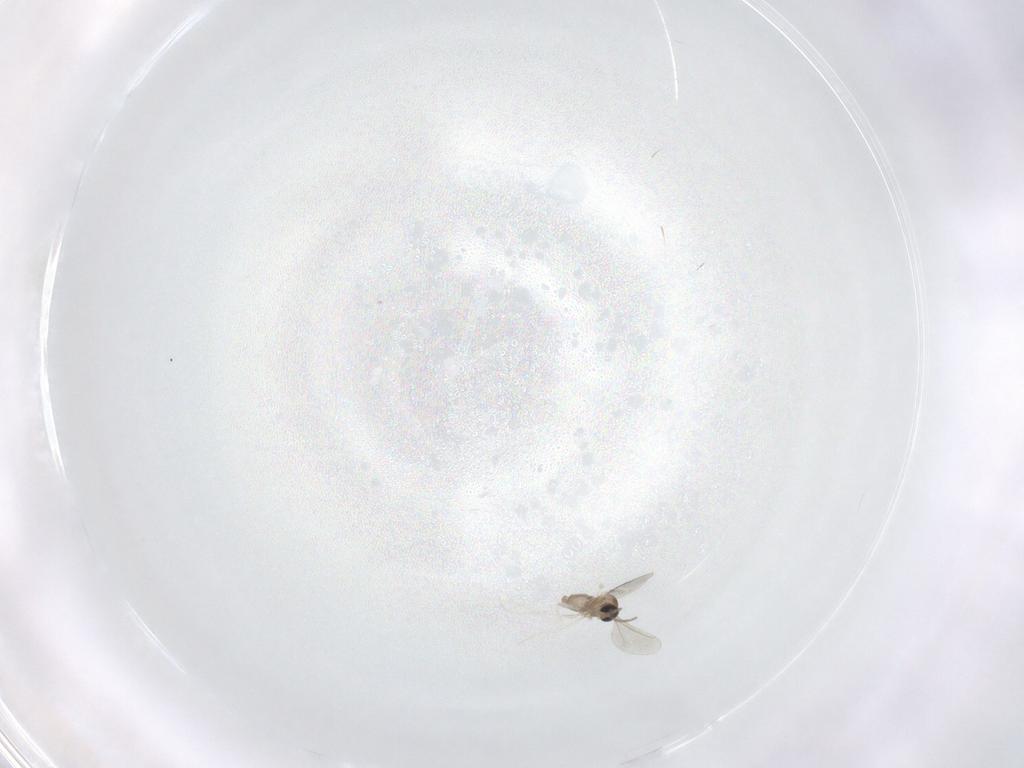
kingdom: Animalia
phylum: Arthropoda
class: Insecta
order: Diptera
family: Cecidomyiidae
